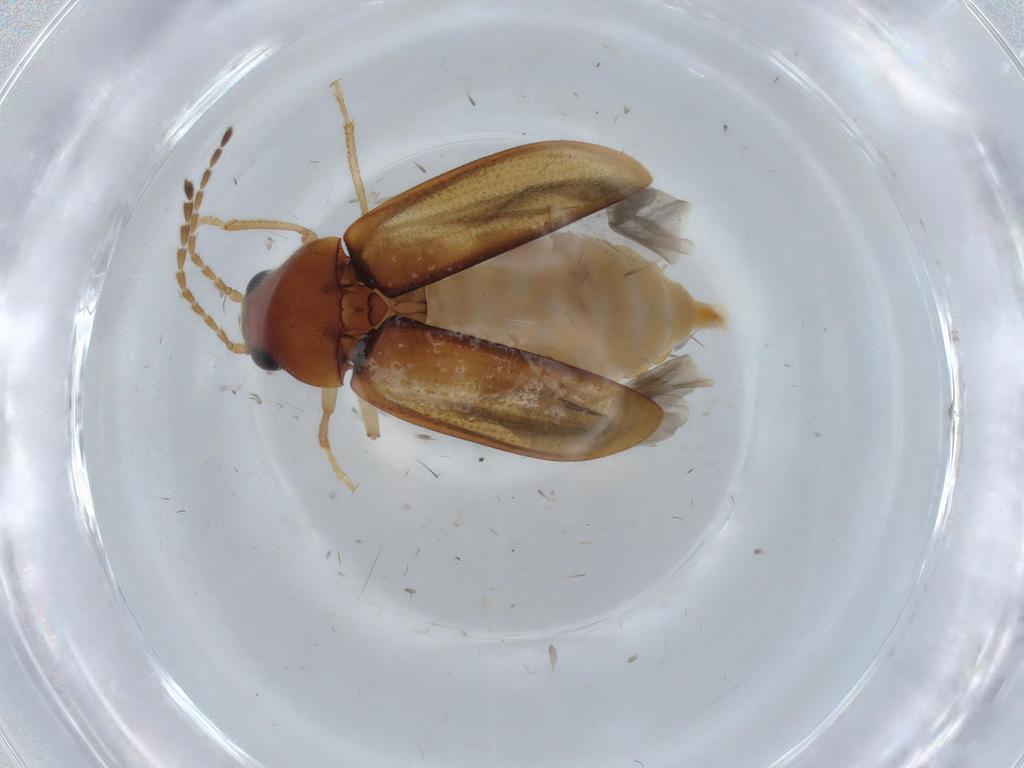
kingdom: Animalia
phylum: Arthropoda
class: Insecta
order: Coleoptera
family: Ptilodactylidae
